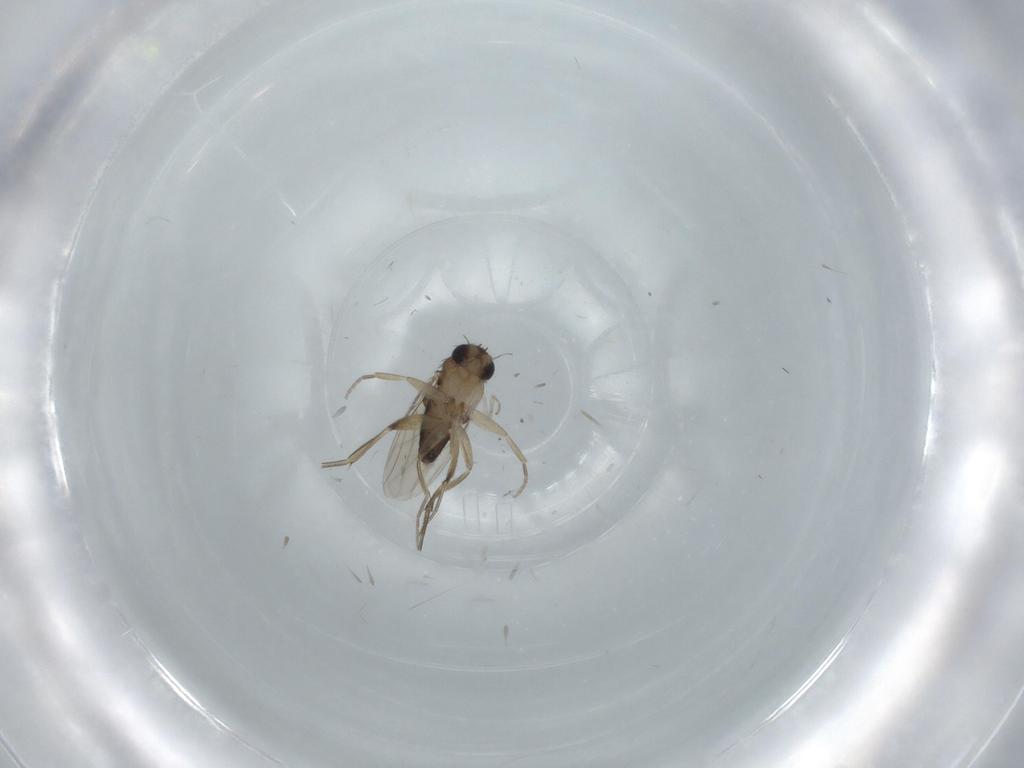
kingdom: Animalia
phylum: Arthropoda
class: Insecta
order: Diptera
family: Phoridae
